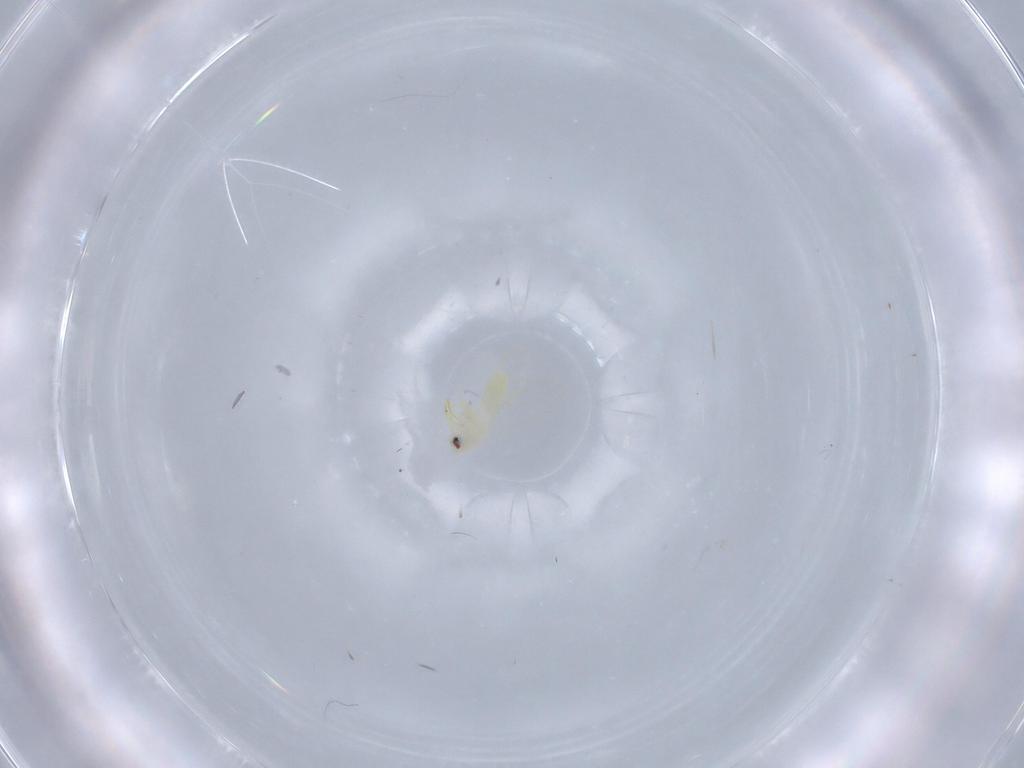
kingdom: Animalia
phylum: Arthropoda
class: Insecta
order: Hemiptera
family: Aleyrodidae
